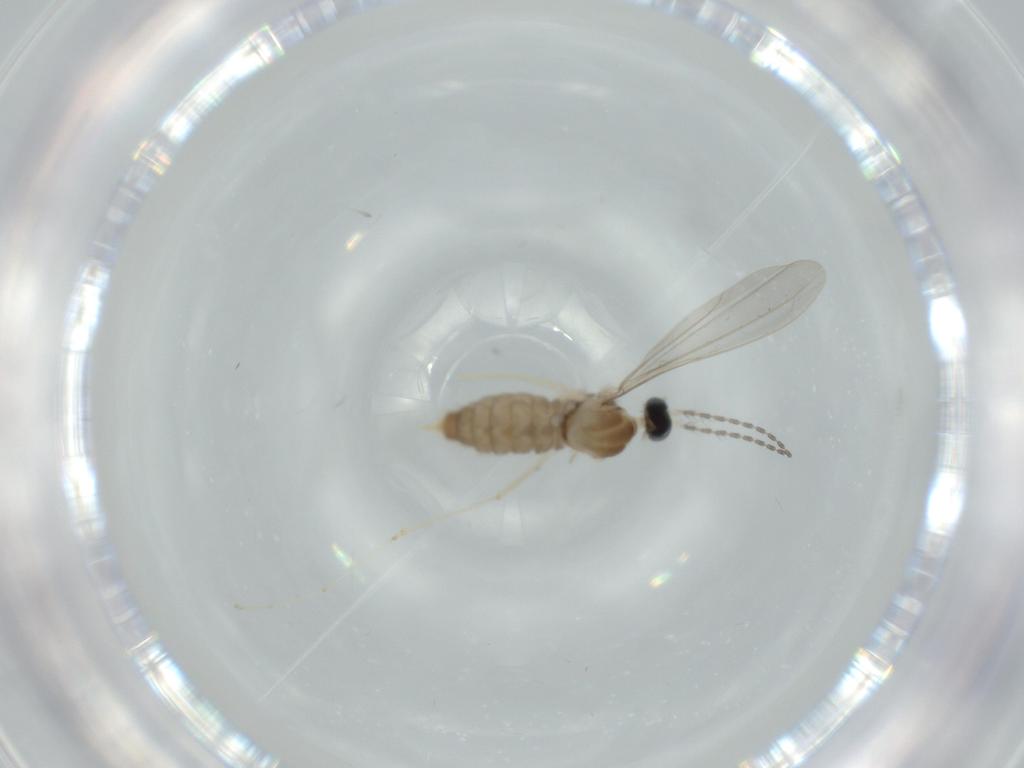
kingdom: Animalia
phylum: Arthropoda
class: Insecta
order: Diptera
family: Cecidomyiidae
